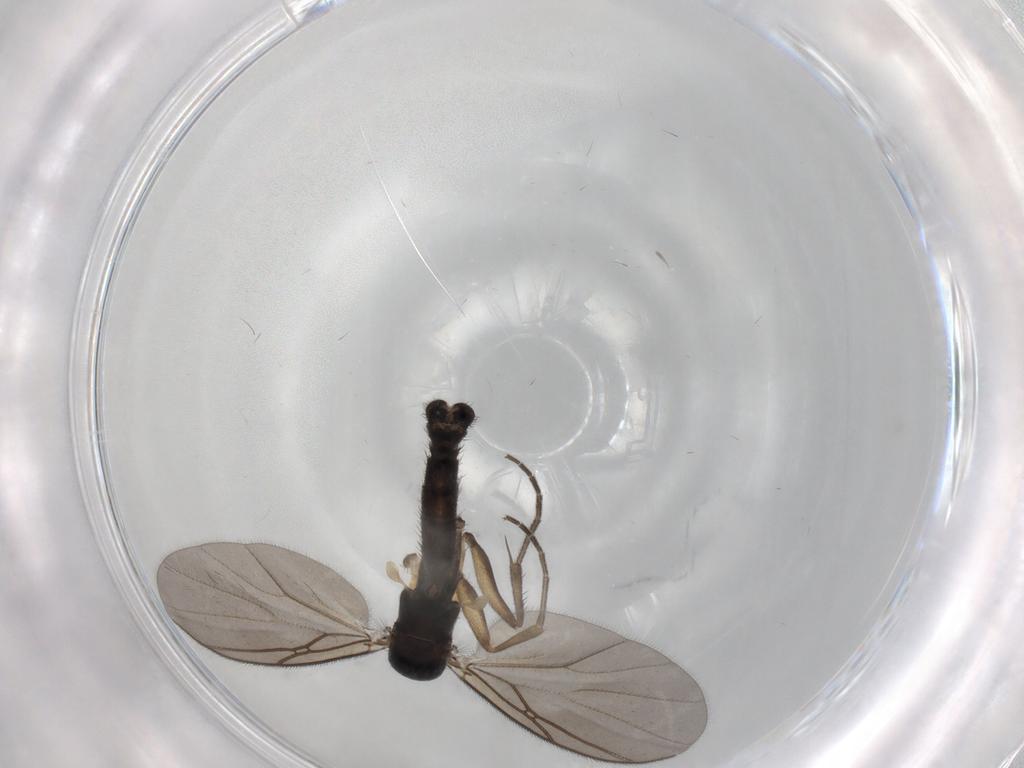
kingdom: Animalia
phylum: Arthropoda
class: Insecta
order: Diptera
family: Mycetophilidae
